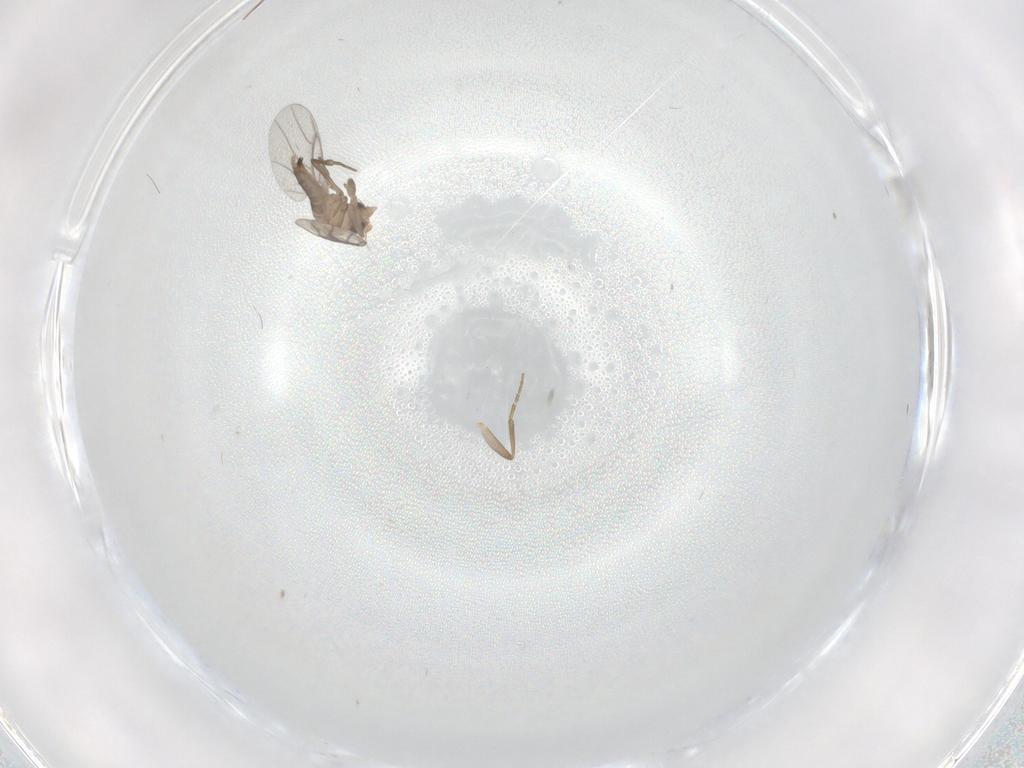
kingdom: Animalia
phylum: Arthropoda
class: Insecta
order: Diptera
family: Chironomidae
